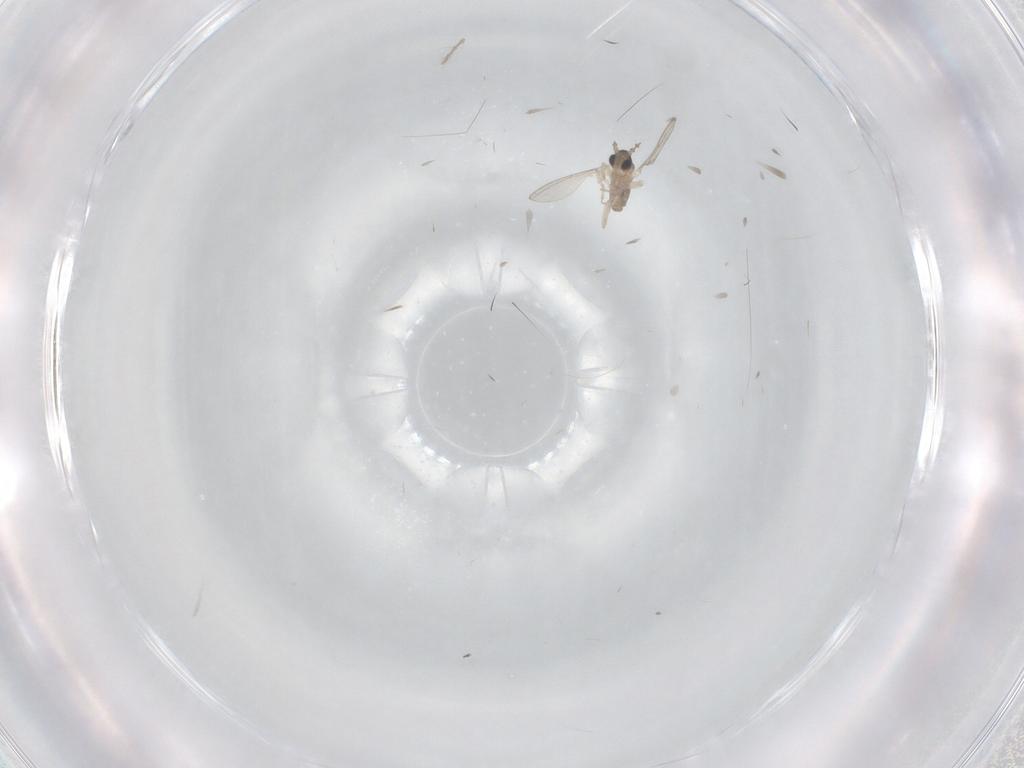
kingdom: Animalia
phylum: Arthropoda
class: Insecta
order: Diptera
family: Cecidomyiidae
